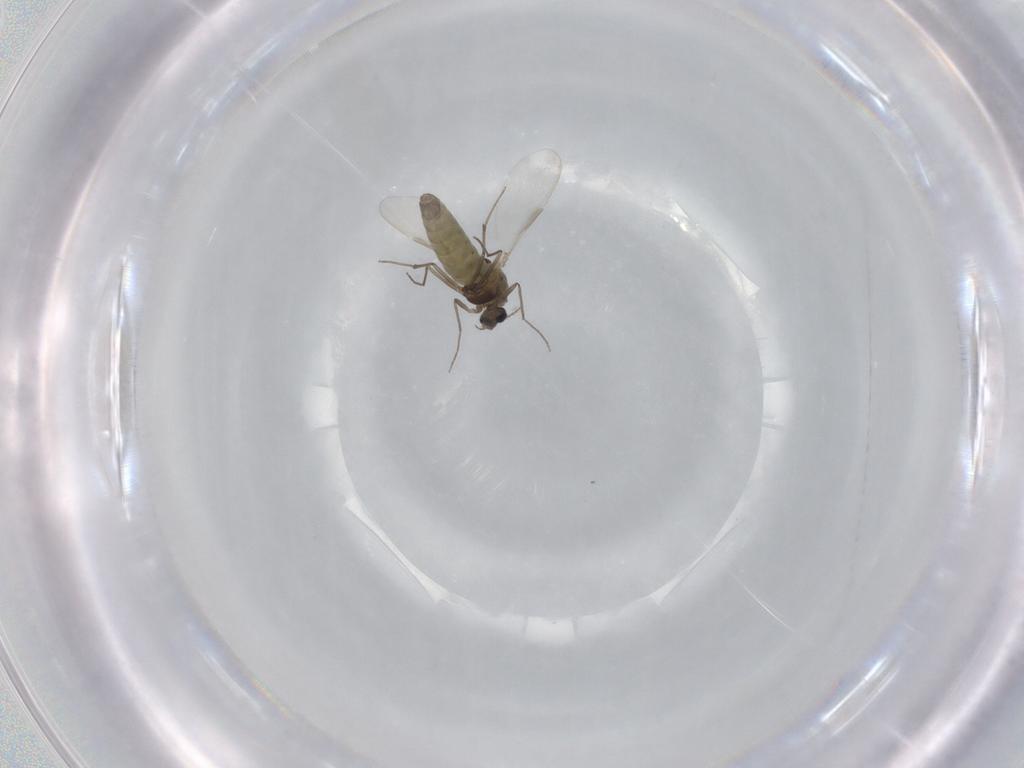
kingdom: Animalia
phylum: Arthropoda
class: Insecta
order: Diptera
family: Chironomidae
